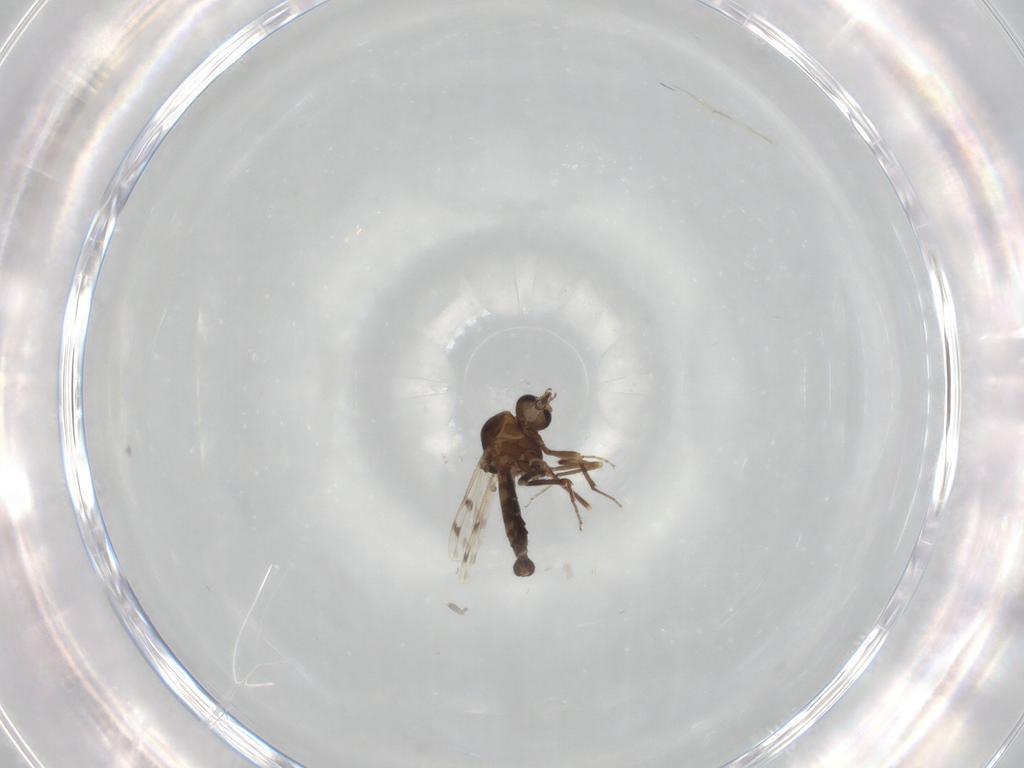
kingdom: Animalia
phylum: Arthropoda
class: Insecta
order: Diptera
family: Ceratopogonidae
